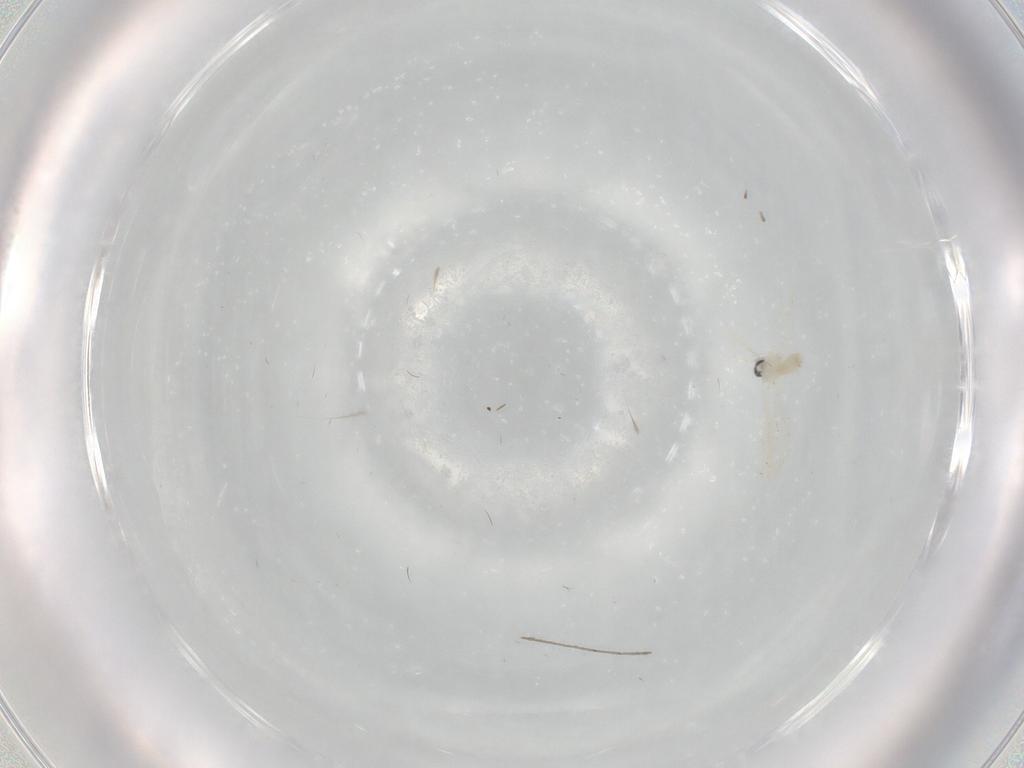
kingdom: Animalia
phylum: Arthropoda
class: Insecta
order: Diptera
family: Cecidomyiidae
